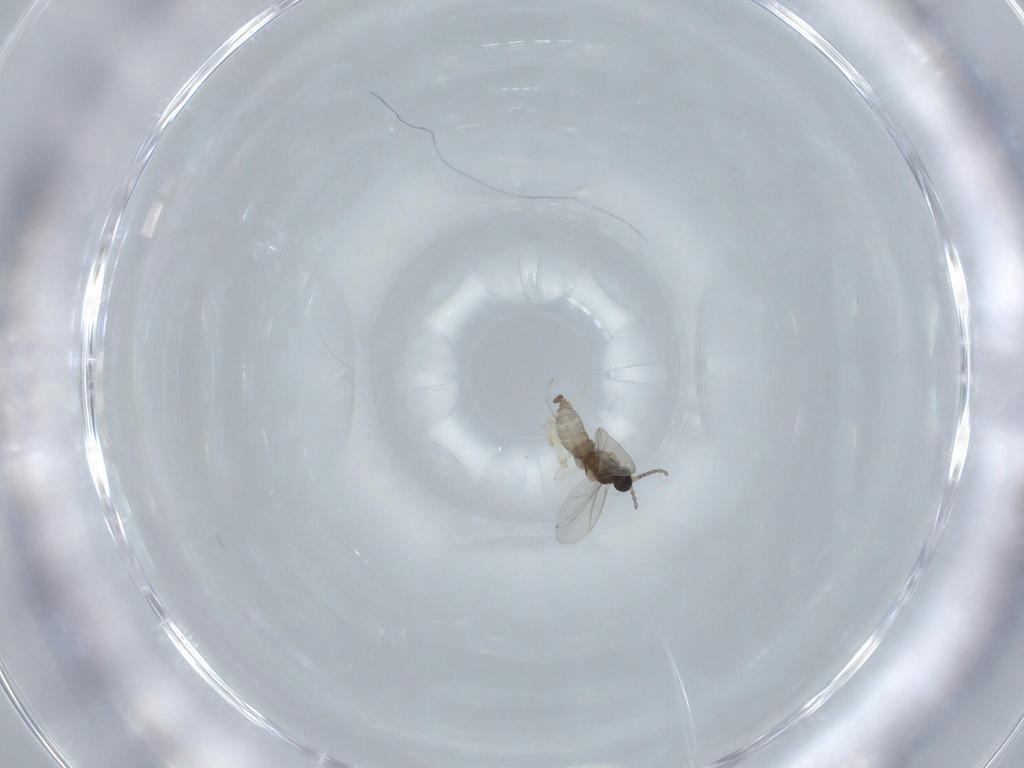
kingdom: Animalia
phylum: Arthropoda
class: Insecta
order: Diptera
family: Chironomidae
